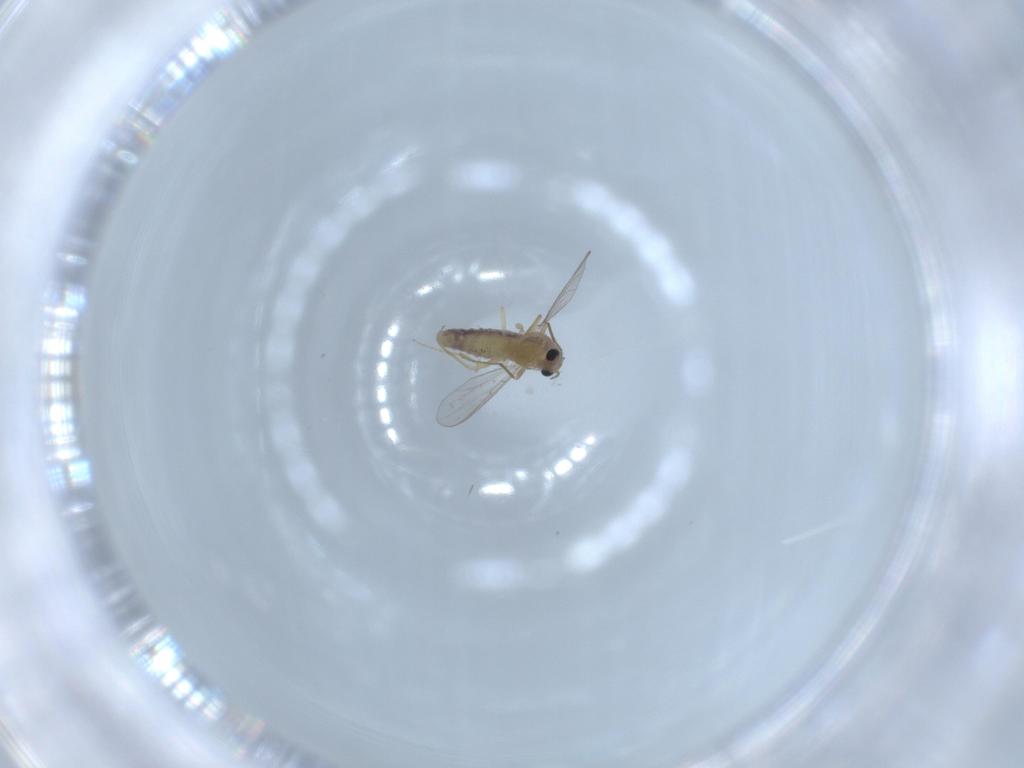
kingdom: Animalia
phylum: Arthropoda
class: Insecta
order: Diptera
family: Chironomidae
